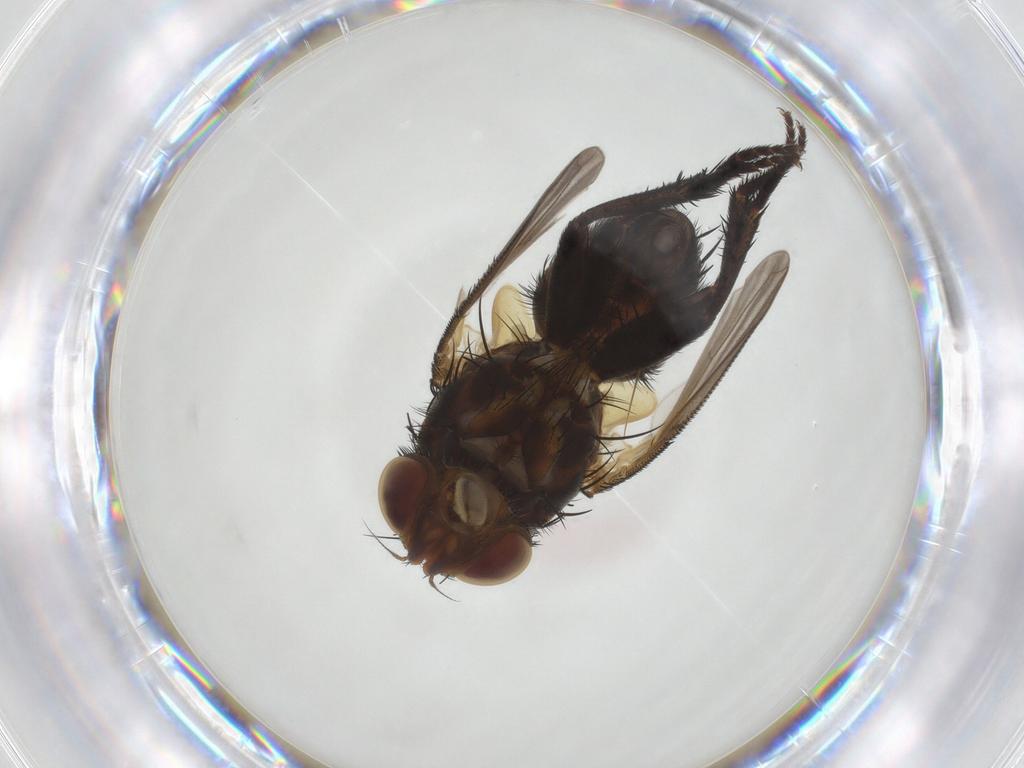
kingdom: Animalia
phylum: Arthropoda
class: Insecta
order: Diptera
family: Tachinidae
